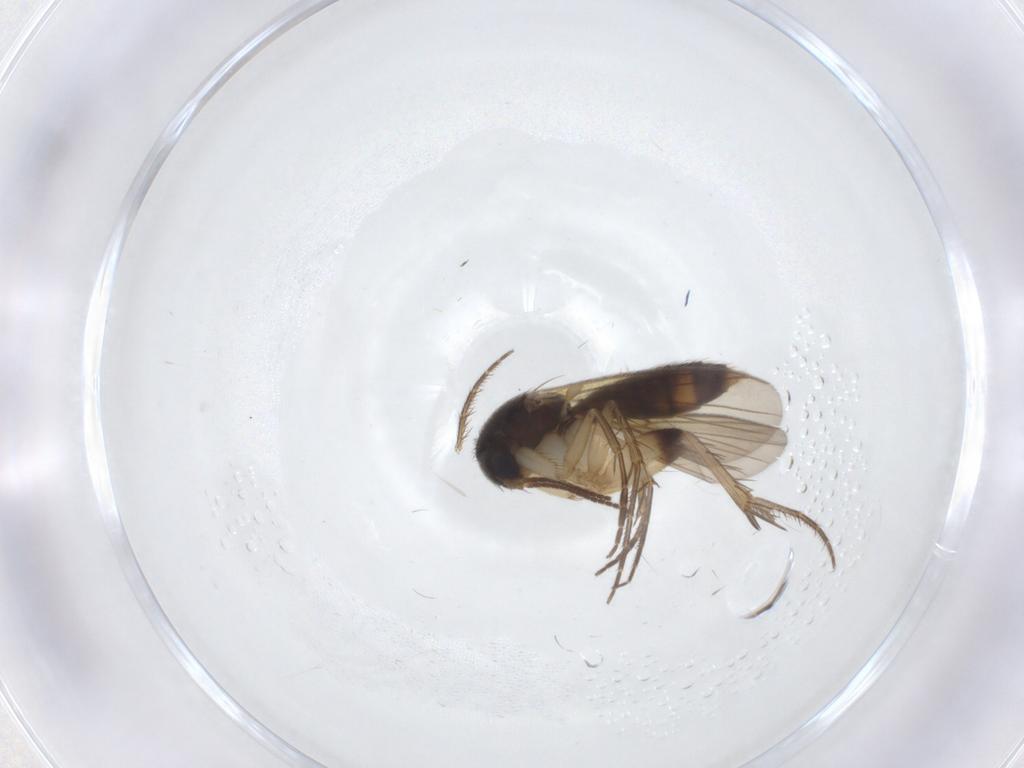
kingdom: Animalia
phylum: Arthropoda
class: Insecta
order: Diptera
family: Mycetophilidae
